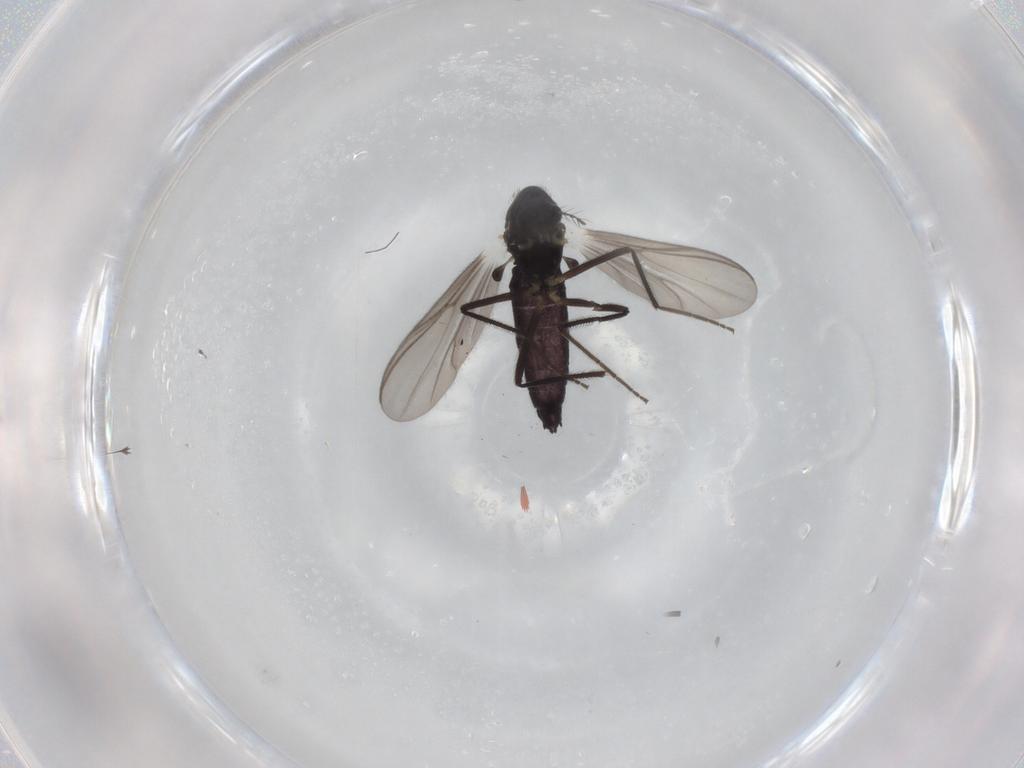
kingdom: Animalia
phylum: Arthropoda
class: Insecta
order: Diptera
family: Chironomidae
